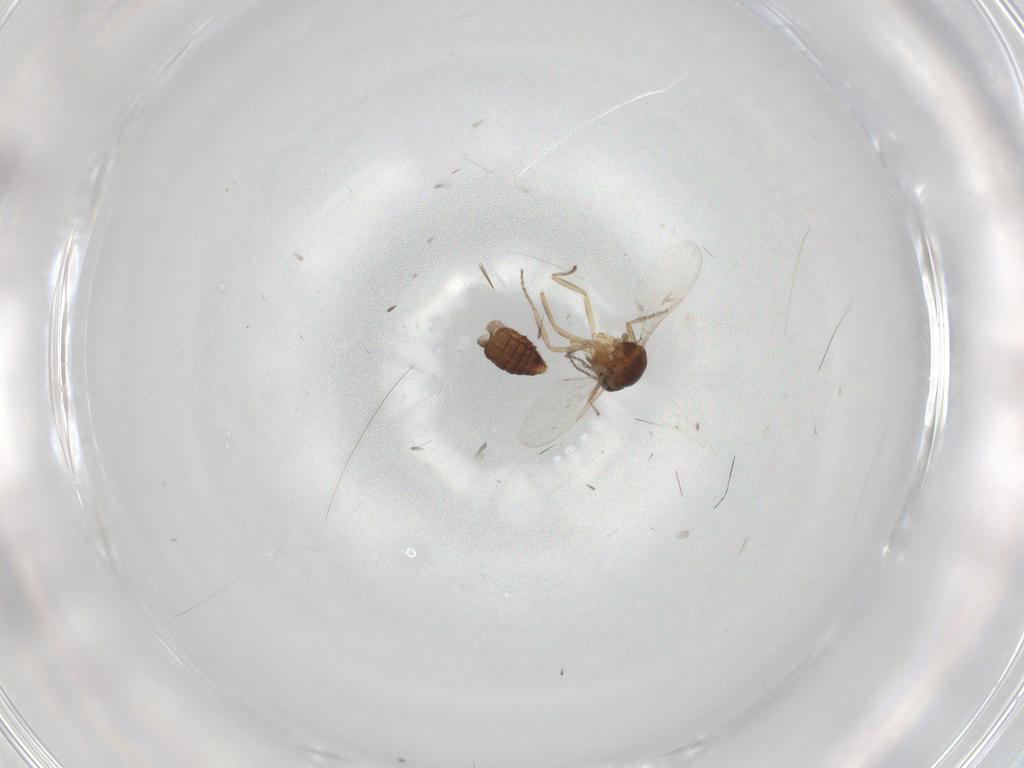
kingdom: Animalia
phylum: Arthropoda
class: Insecta
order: Diptera
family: Ceratopogonidae
